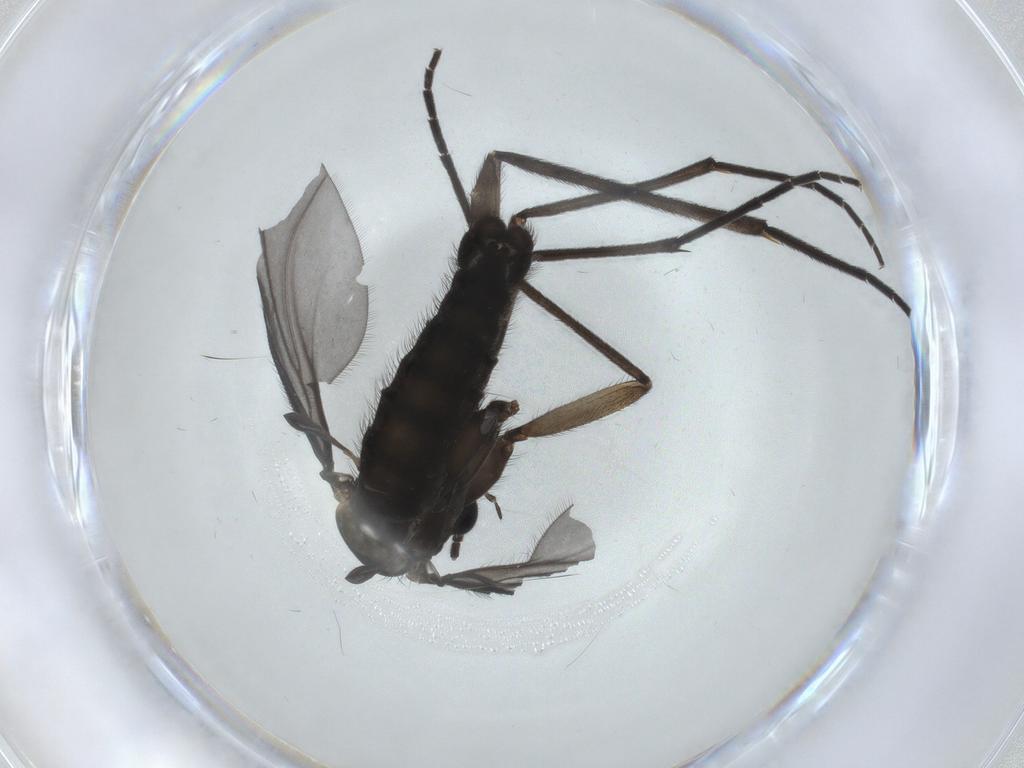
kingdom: Animalia
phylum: Arthropoda
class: Insecta
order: Diptera
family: Sciaridae
